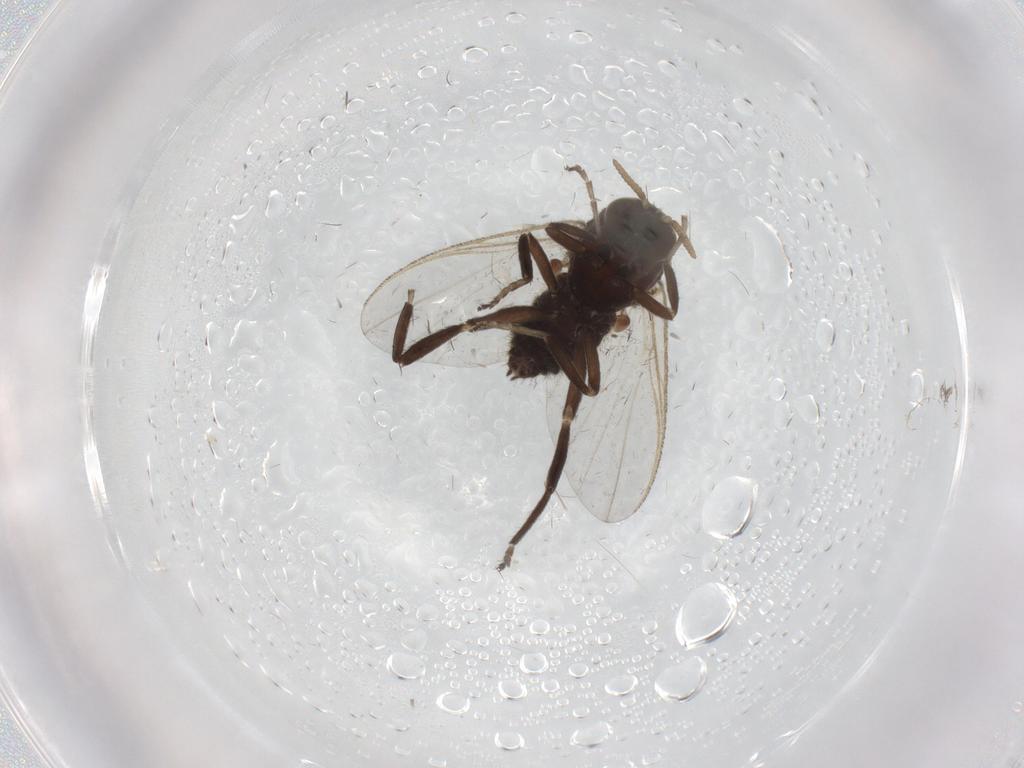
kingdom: Animalia
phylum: Arthropoda
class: Insecta
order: Diptera
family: Simuliidae
